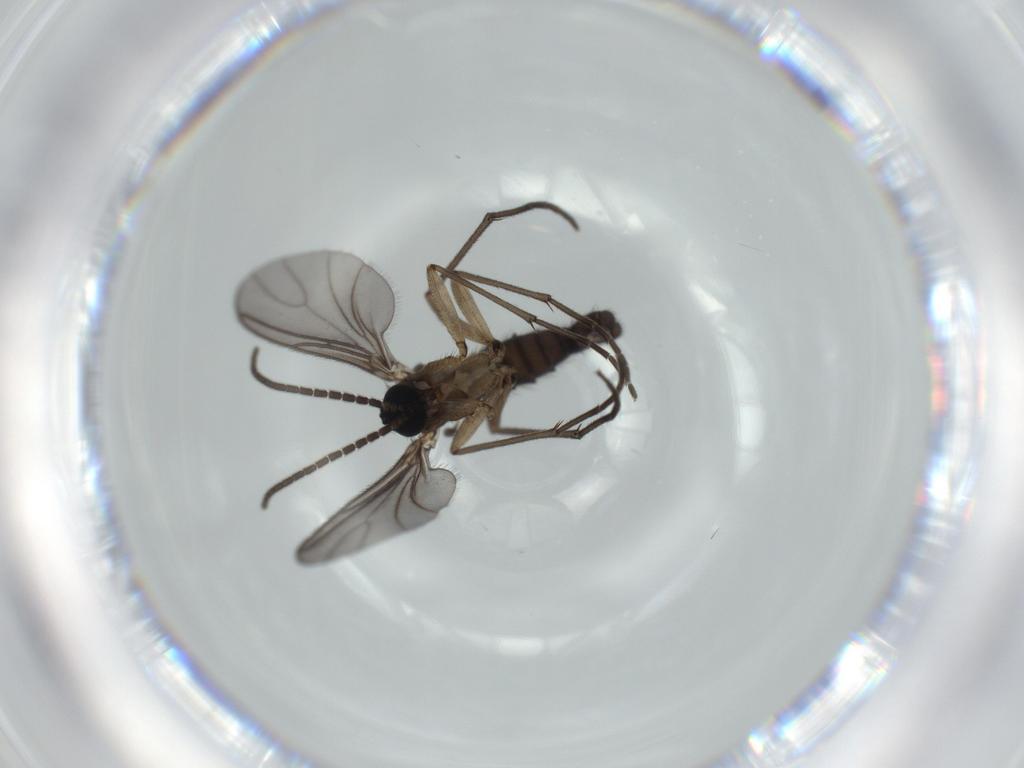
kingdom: Animalia
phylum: Arthropoda
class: Insecta
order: Diptera
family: Sciaridae
